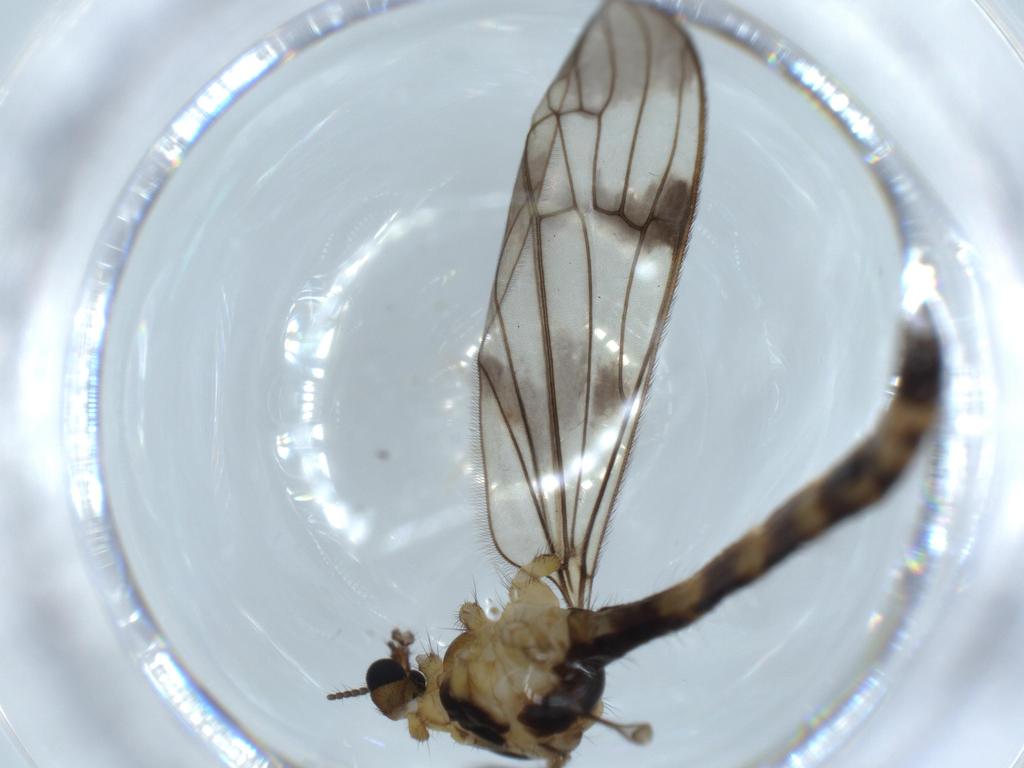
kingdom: Animalia
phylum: Arthropoda
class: Insecta
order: Diptera
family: Limoniidae
